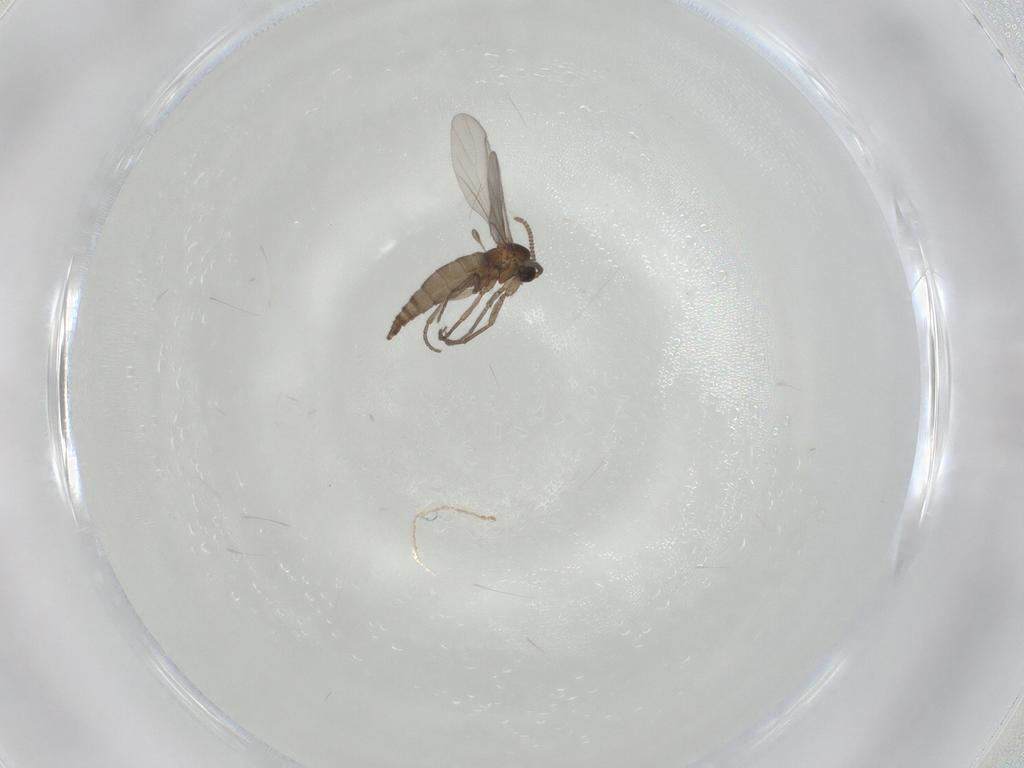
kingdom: Animalia
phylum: Arthropoda
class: Insecta
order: Diptera
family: Sciaridae
